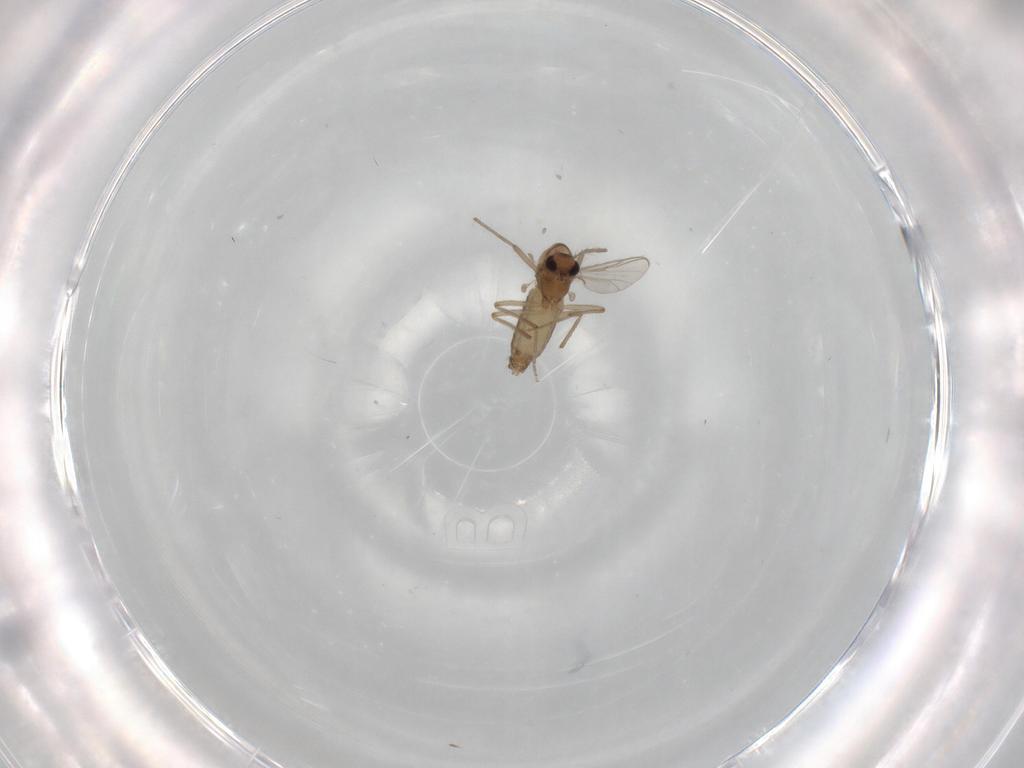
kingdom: Animalia
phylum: Arthropoda
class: Insecta
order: Diptera
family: Chironomidae
